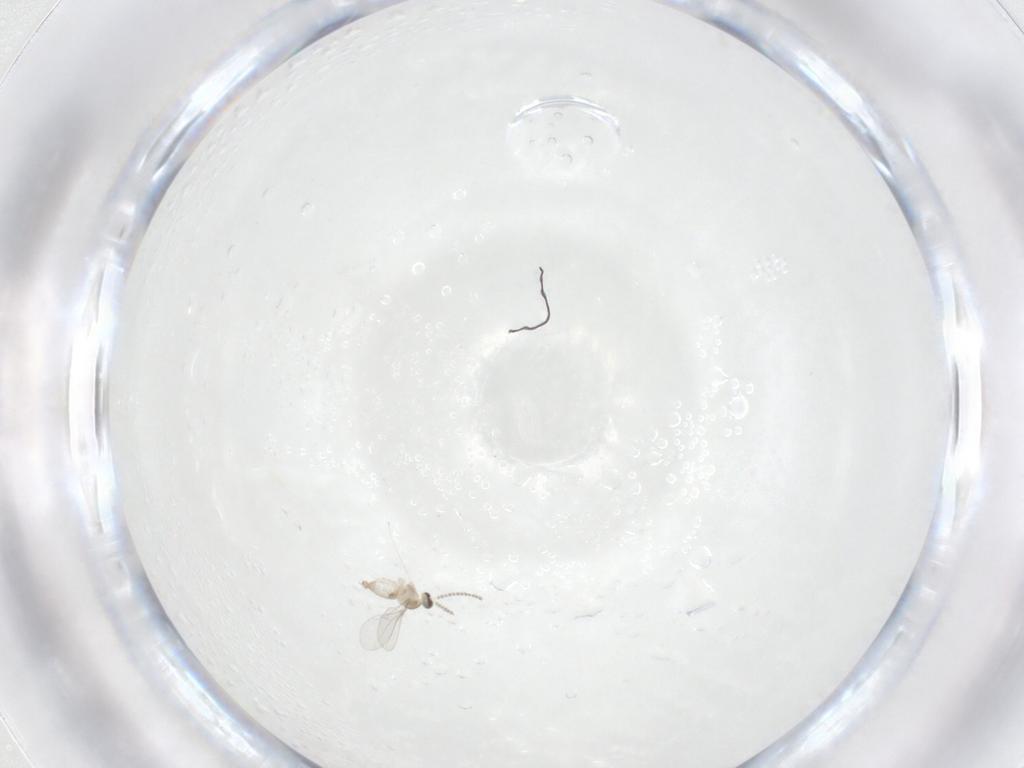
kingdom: Animalia
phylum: Arthropoda
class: Insecta
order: Diptera
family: Cecidomyiidae
